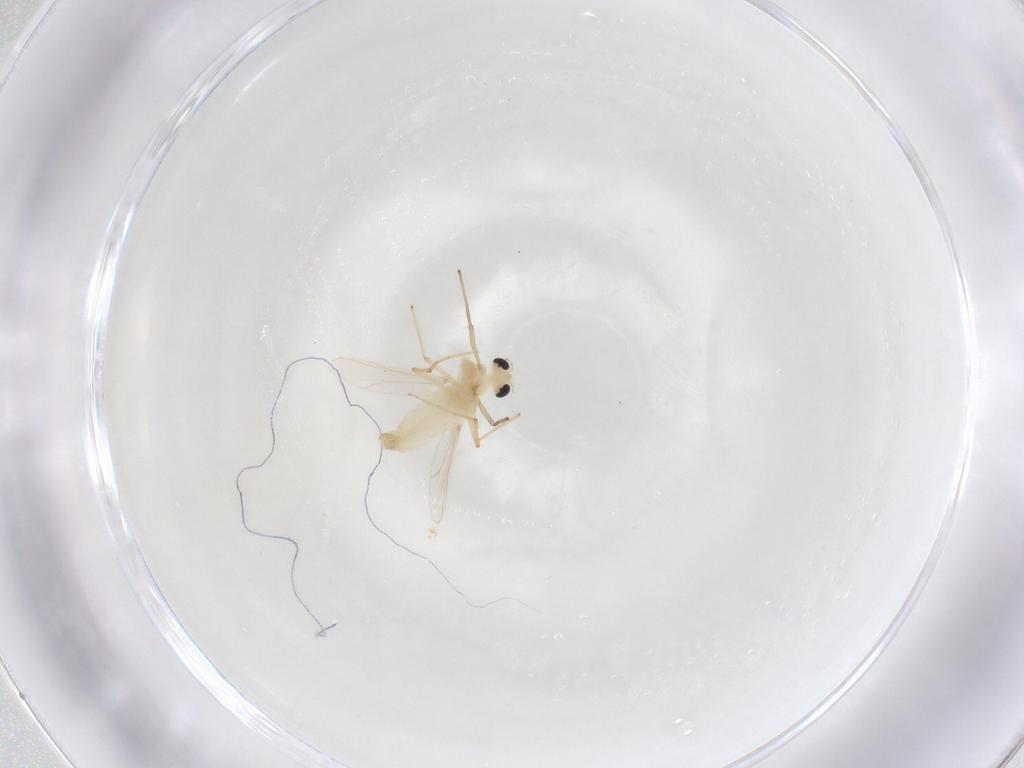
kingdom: Animalia
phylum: Arthropoda
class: Insecta
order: Diptera
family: Chironomidae
